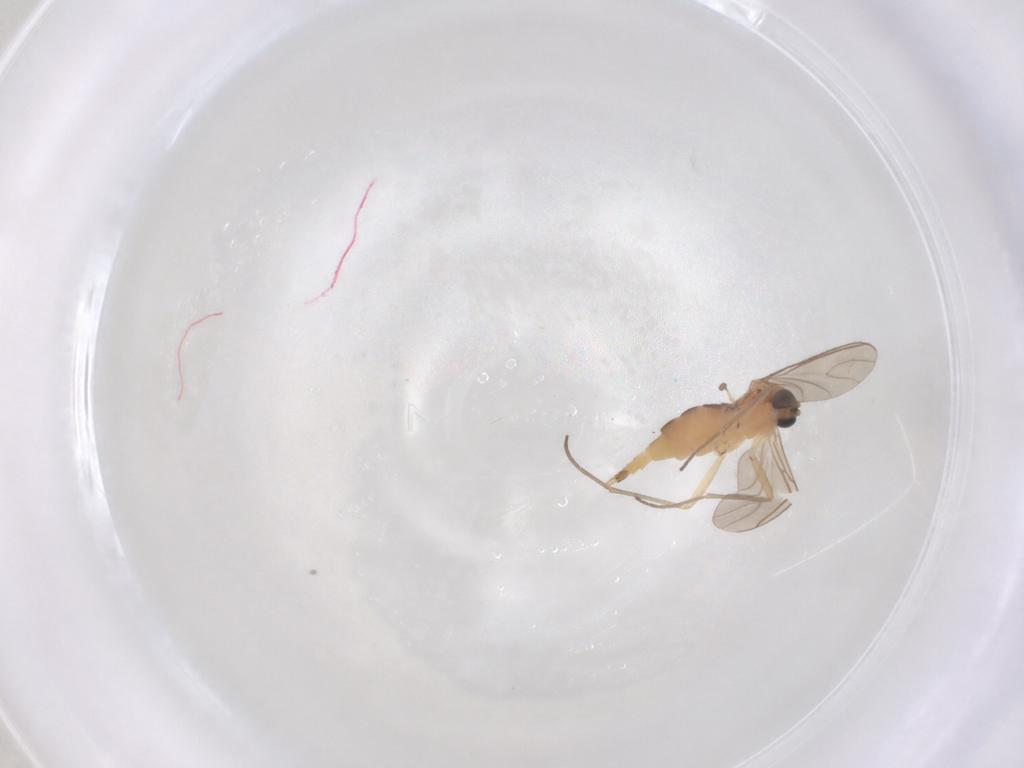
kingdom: Animalia
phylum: Arthropoda
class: Insecta
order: Diptera
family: Sciaridae
